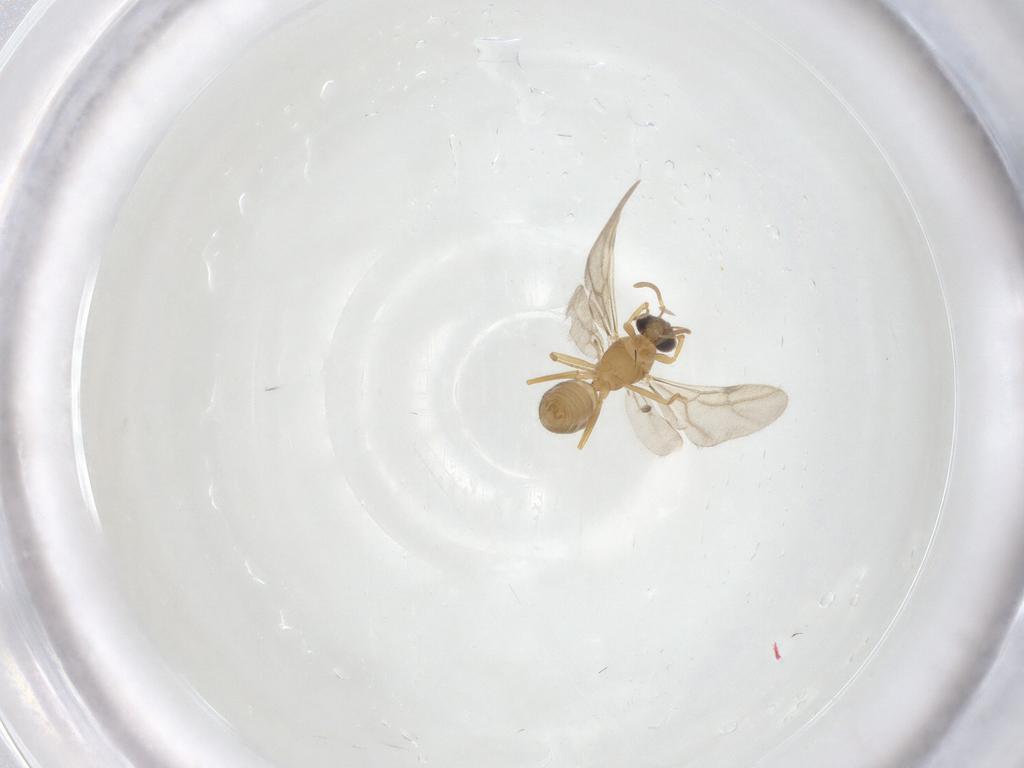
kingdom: Animalia
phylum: Arthropoda
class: Insecta
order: Hymenoptera
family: Formicidae
